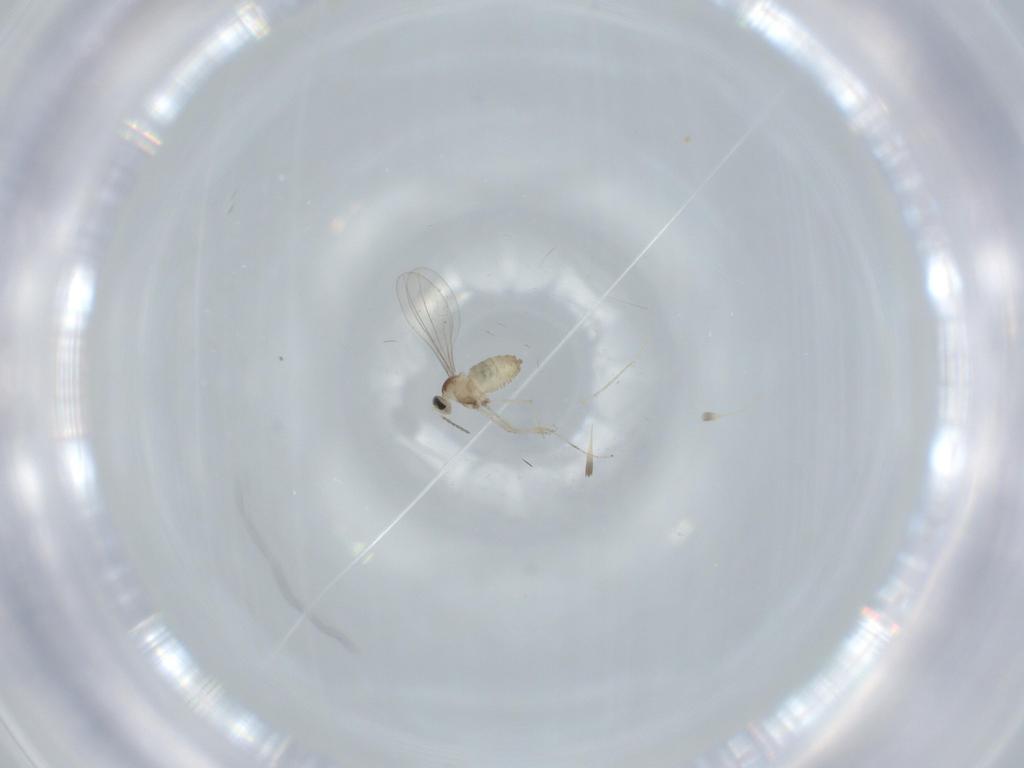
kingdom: Animalia
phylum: Arthropoda
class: Insecta
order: Diptera
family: Cecidomyiidae
